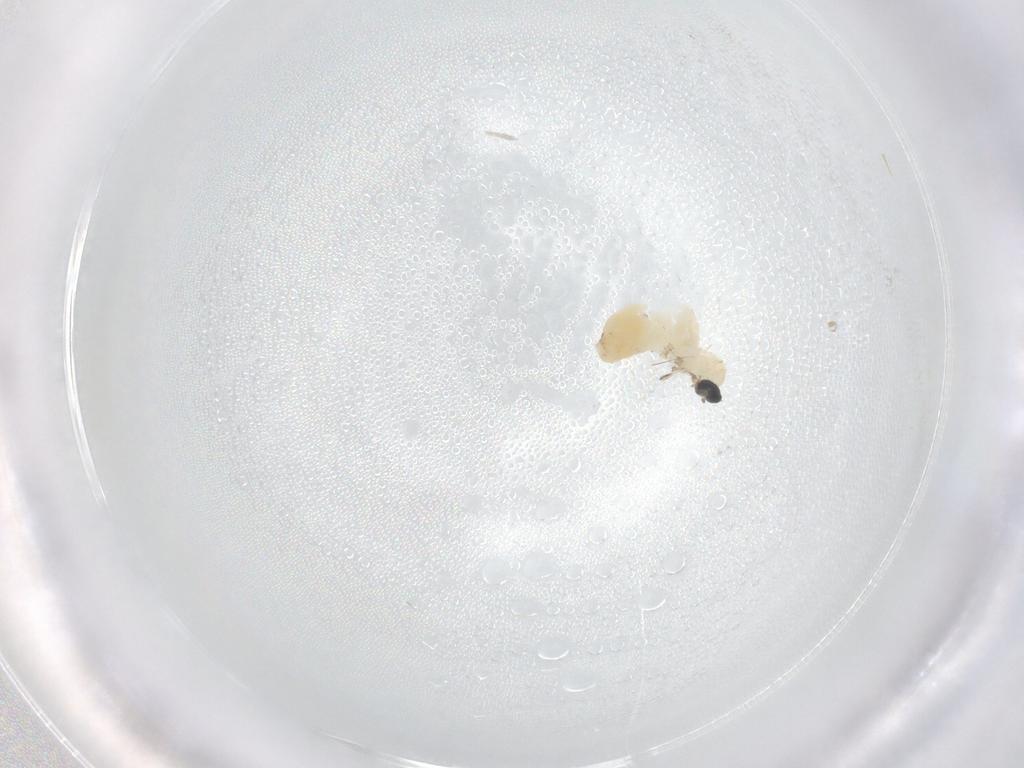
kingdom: Animalia
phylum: Arthropoda
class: Insecta
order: Diptera
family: Cecidomyiidae
